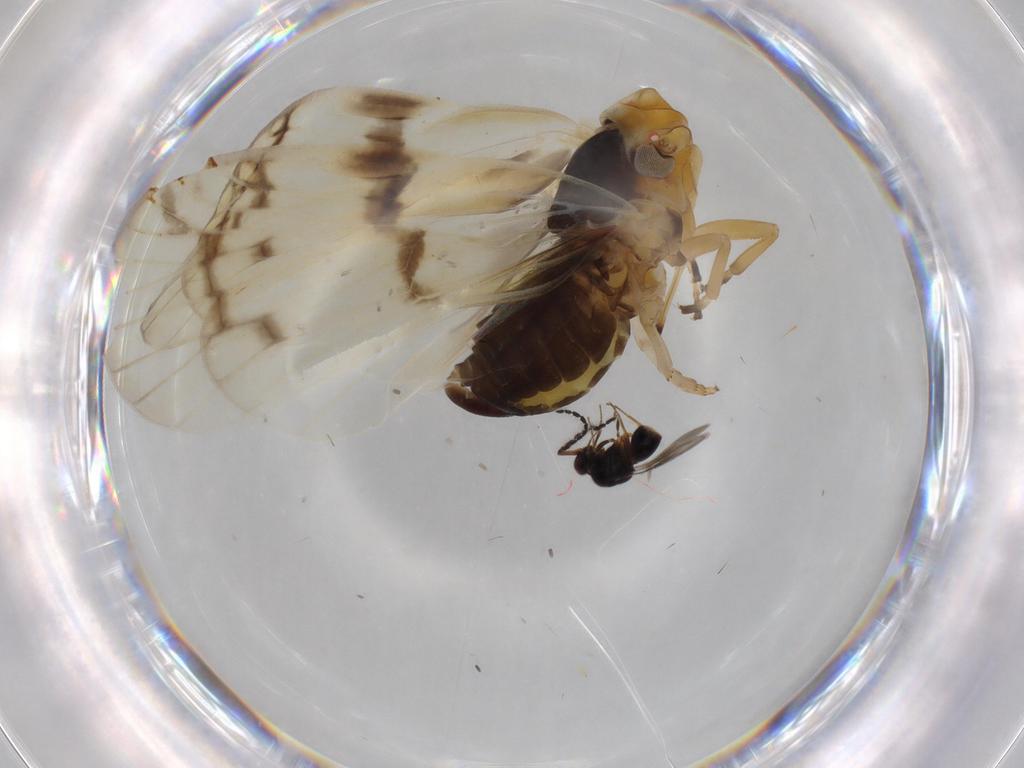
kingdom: Animalia
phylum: Arthropoda
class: Insecta
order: Hemiptera
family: Cixiidae
